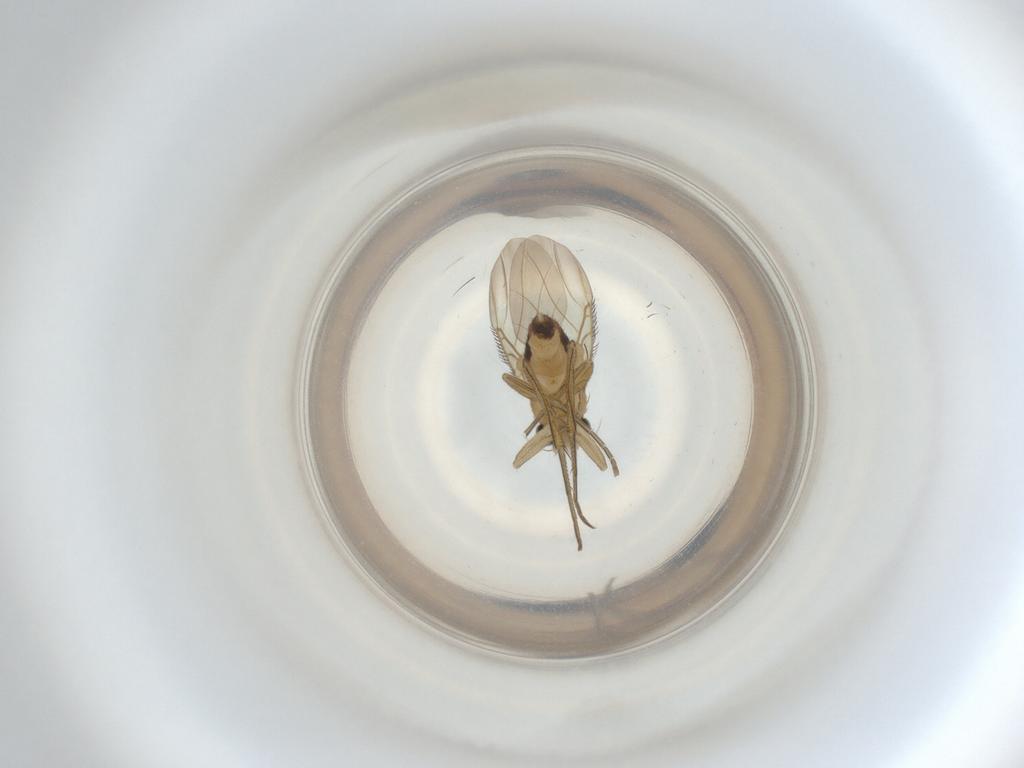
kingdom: Animalia
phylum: Arthropoda
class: Insecta
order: Diptera
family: Phoridae
